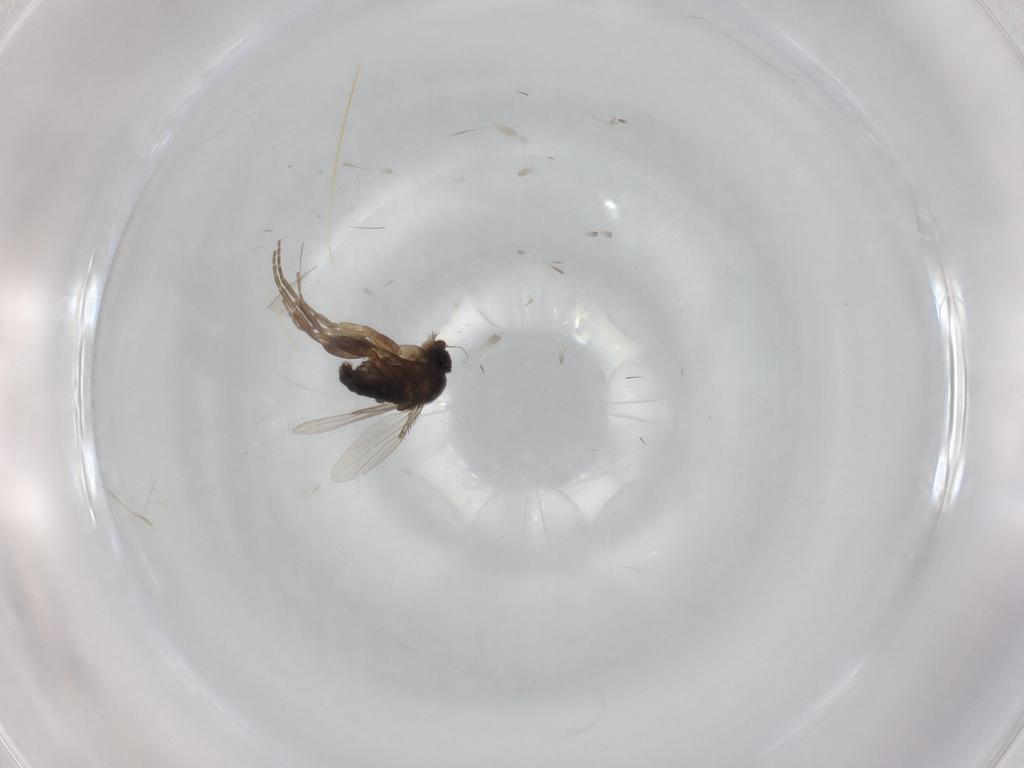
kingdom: Animalia
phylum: Arthropoda
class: Insecta
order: Diptera
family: Phoridae
